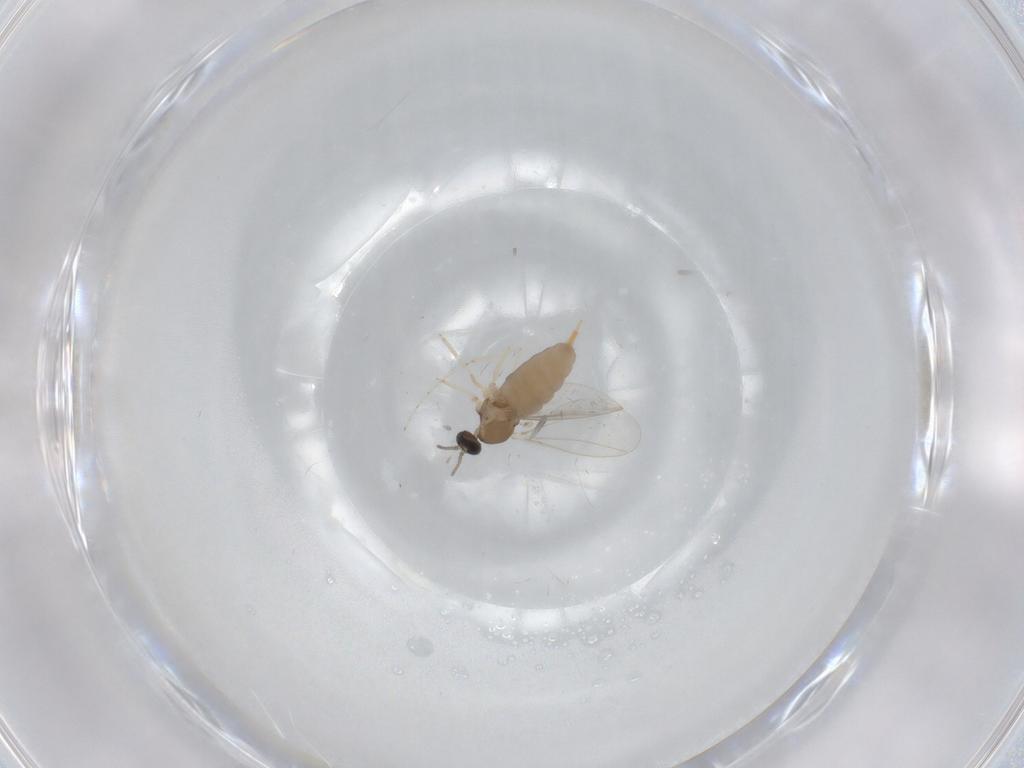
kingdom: Animalia
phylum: Arthropoda
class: Insecta
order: Diptera
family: Cecidomyiidae
